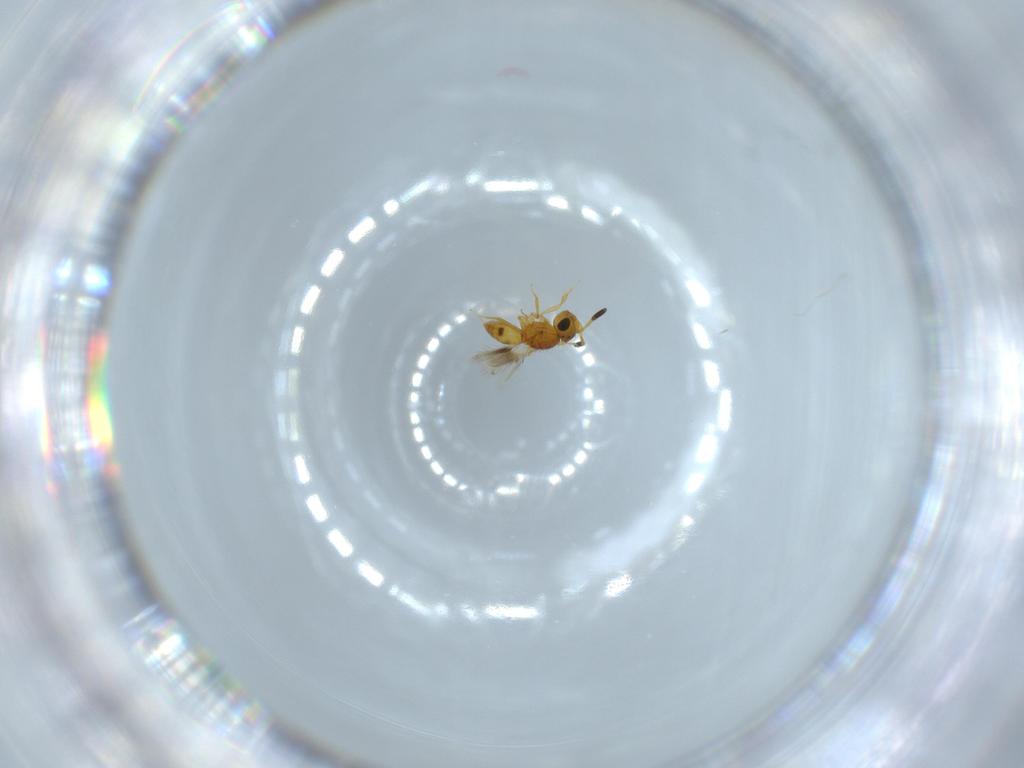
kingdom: Animalia
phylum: Arthropoda
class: Insecta
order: Hymenoptera
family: Scelionidae
